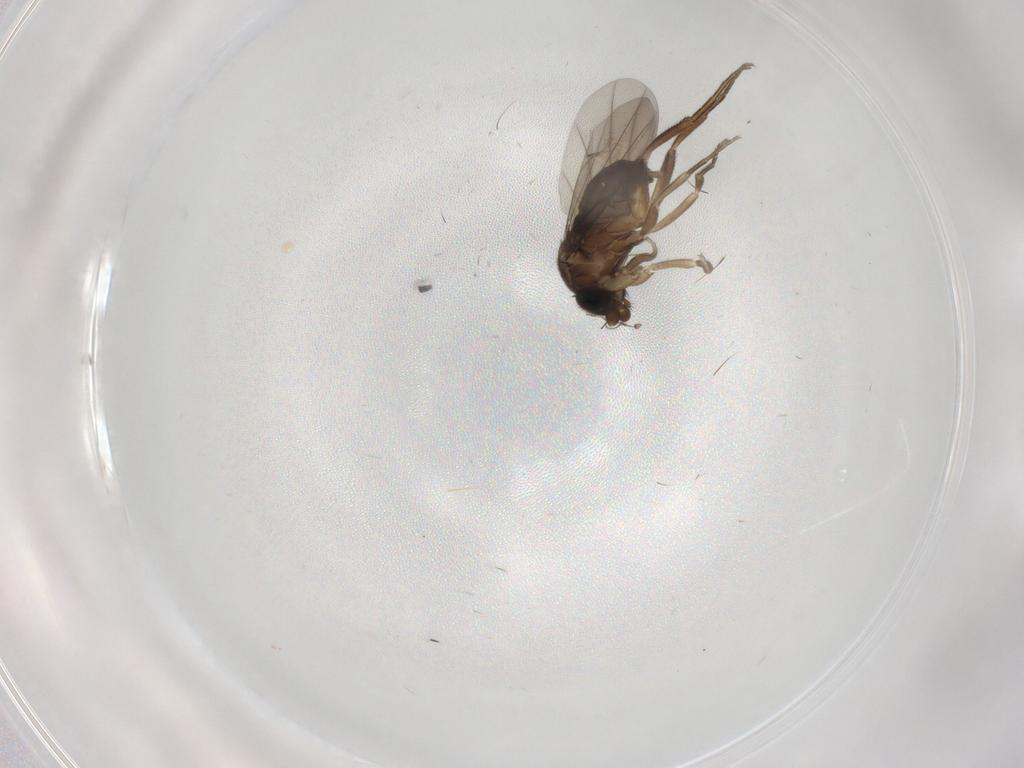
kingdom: Animalia
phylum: Arthropoda
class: Insecta
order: Diptera
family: Phoridae
